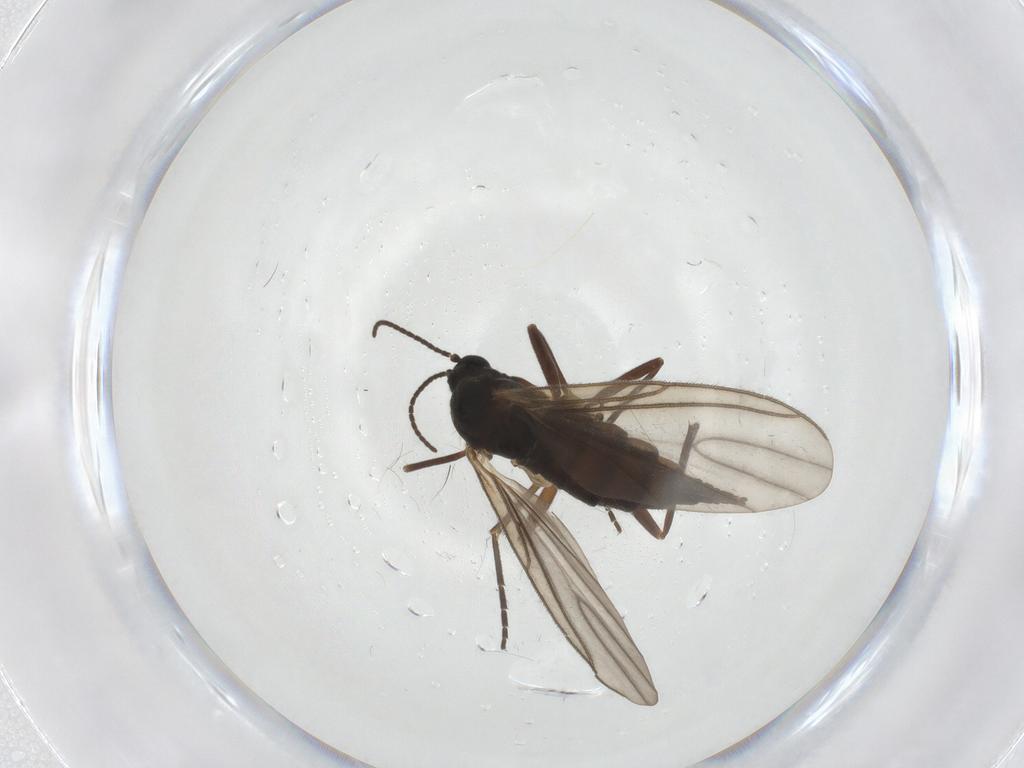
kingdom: Animalia
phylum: Arthropoda
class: Insecta
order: Diptera
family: Sciaridae
